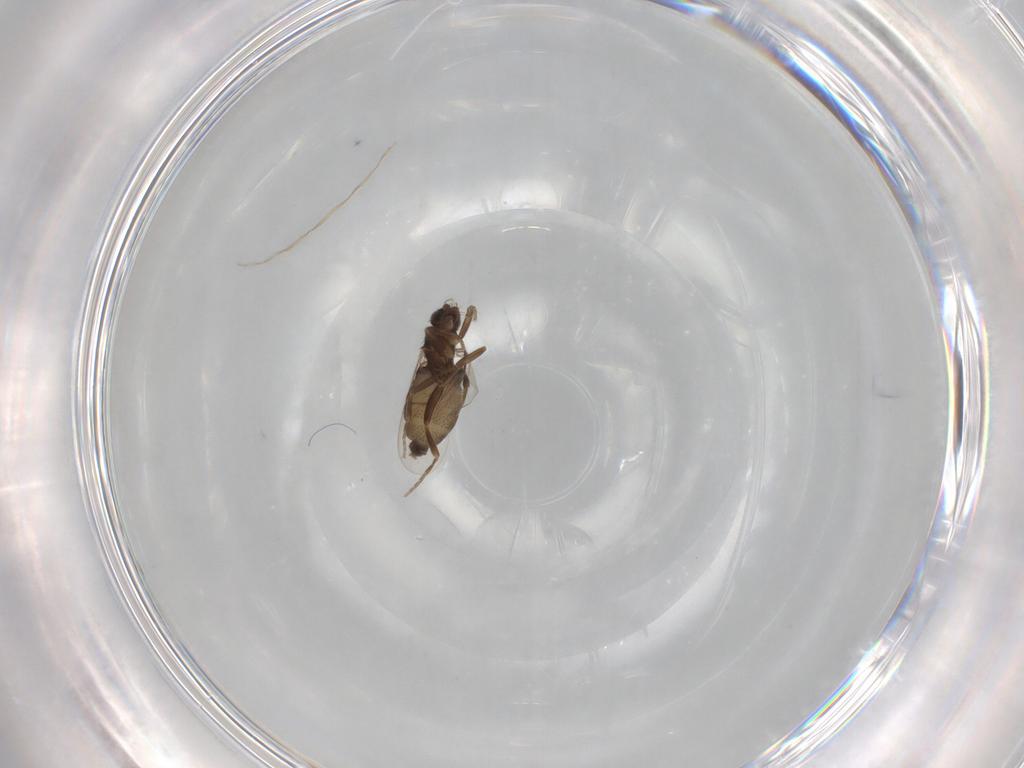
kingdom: Animalia
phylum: Arthropoda
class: Insecta
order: Diptera
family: Phoridae
